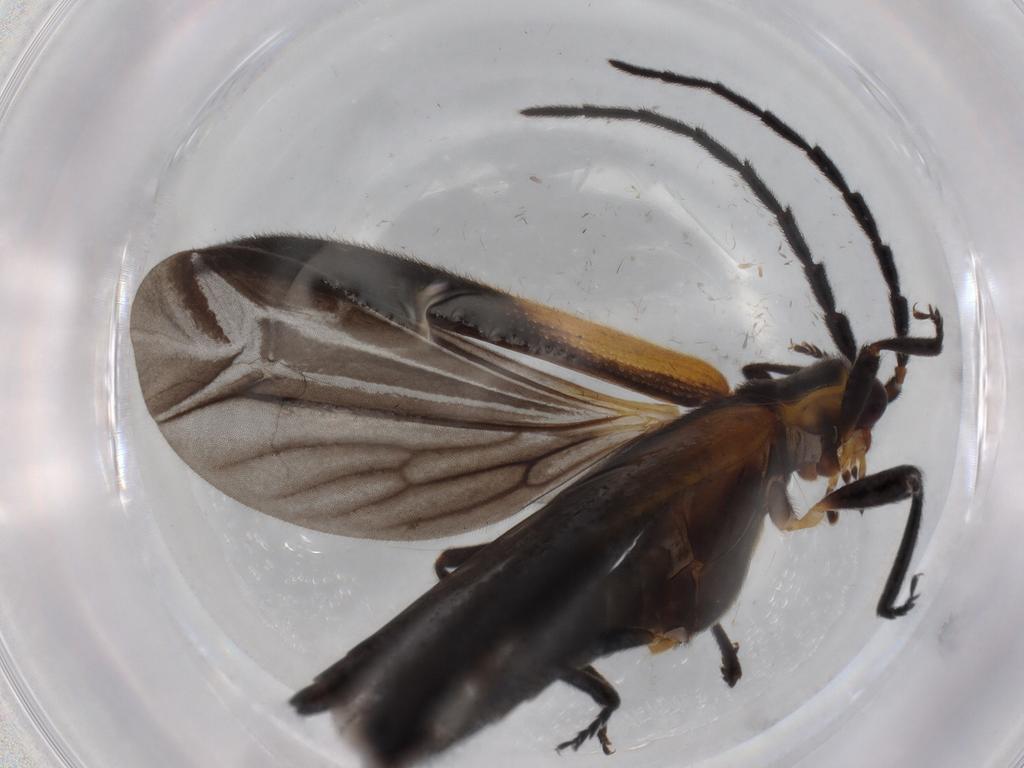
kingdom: Animalia
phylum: Arthropoda
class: Insecta
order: Coleoptera
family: Lycidae
